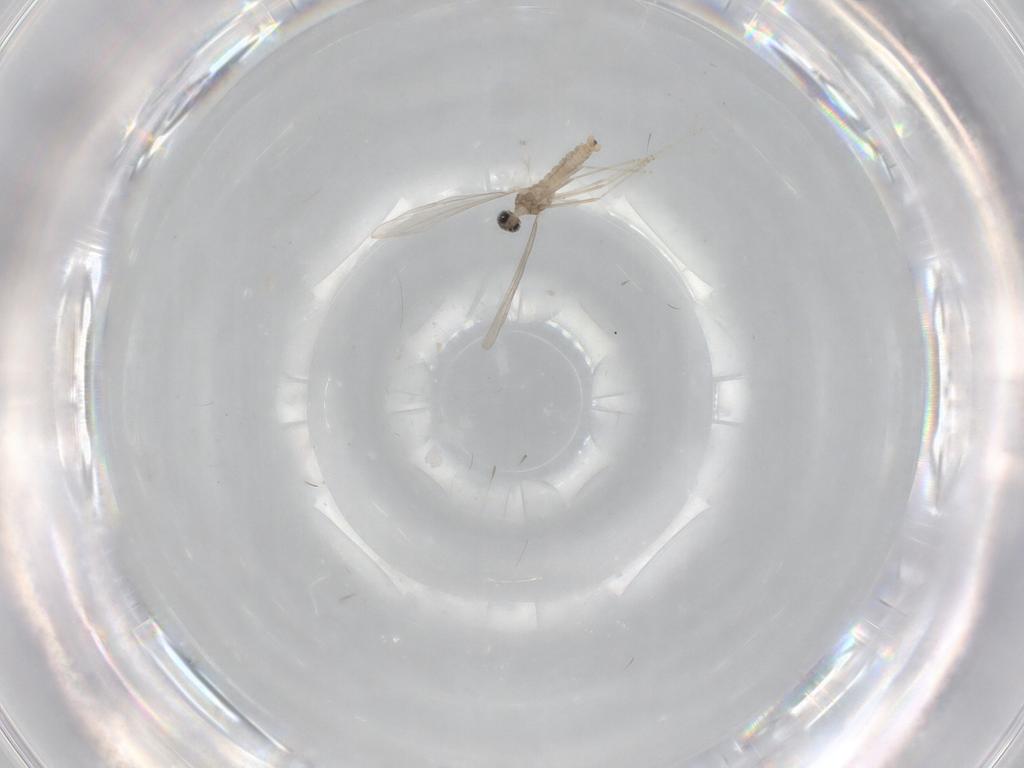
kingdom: Animalia
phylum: Arthropoda
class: Insecta
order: Diptera
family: Cecidomyiidae
